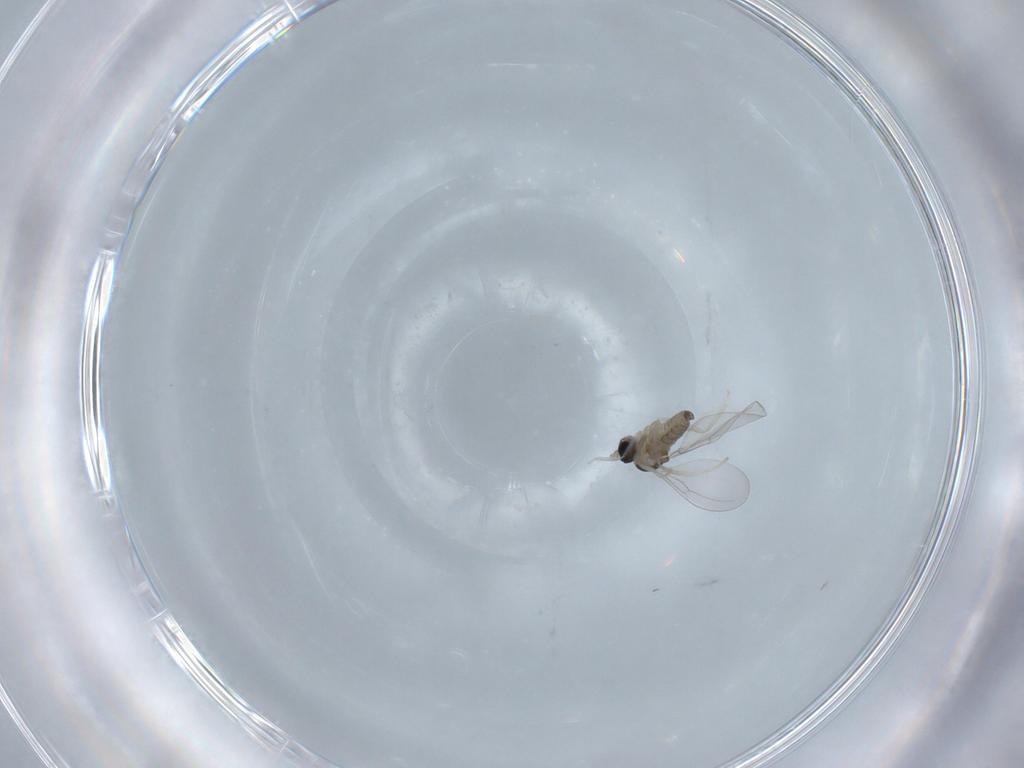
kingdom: Animalia
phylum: Arthropoda
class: Insecta
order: Diptera
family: Cecidomyiidae
